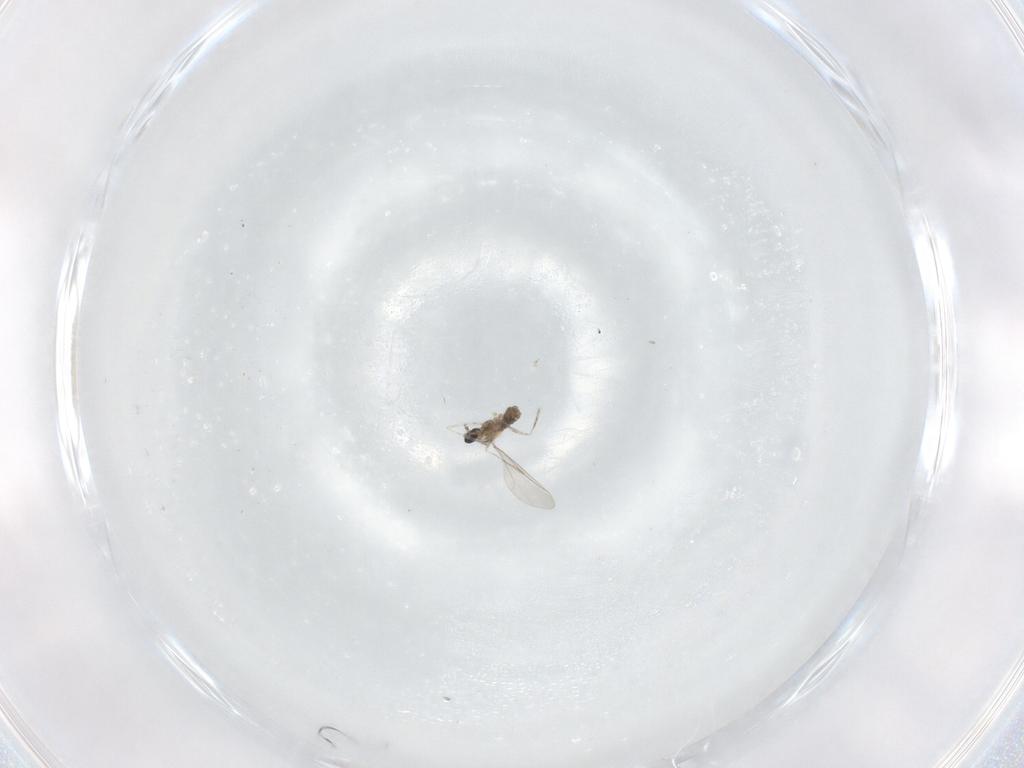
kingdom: Animalia
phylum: Arthropoda
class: Insecta
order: Diptera
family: Cecidomyiidae
